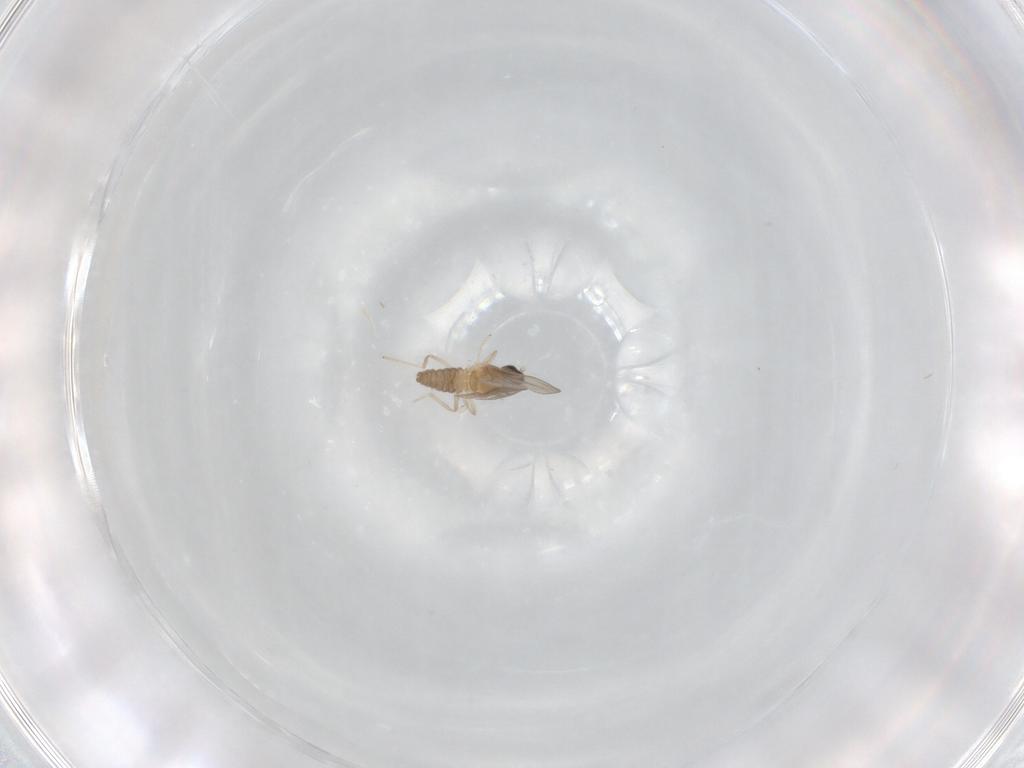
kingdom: Animalia
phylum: Arthropoda
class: Insecta
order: Diptera
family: Cecidomyiidae
